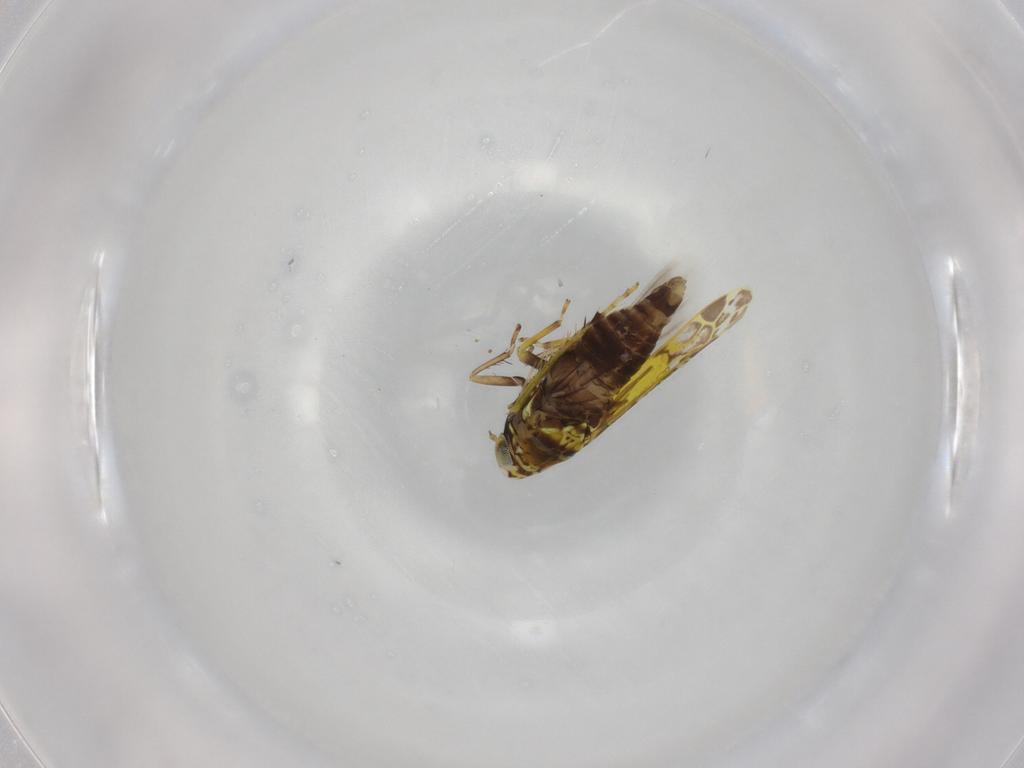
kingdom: Animalia
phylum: Arthropoda
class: Insecta
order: Hemiptera
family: Cicadellidae
